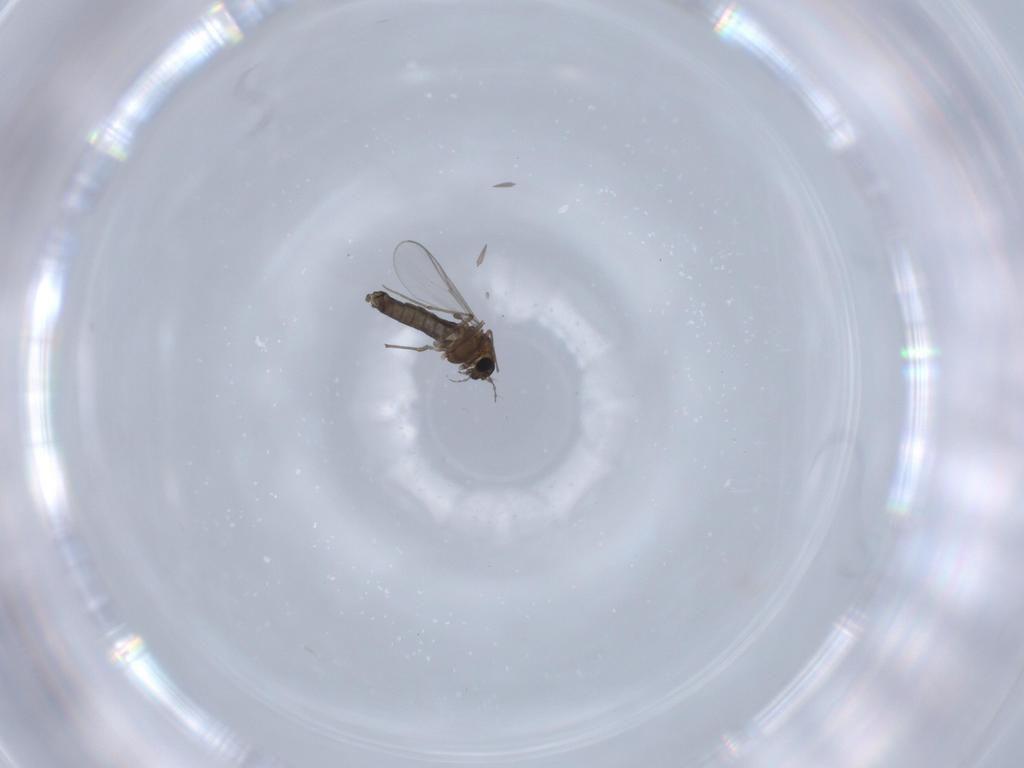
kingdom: Animalia
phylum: Arthropoda
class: Insecta
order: Diptera
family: Chironomidae
